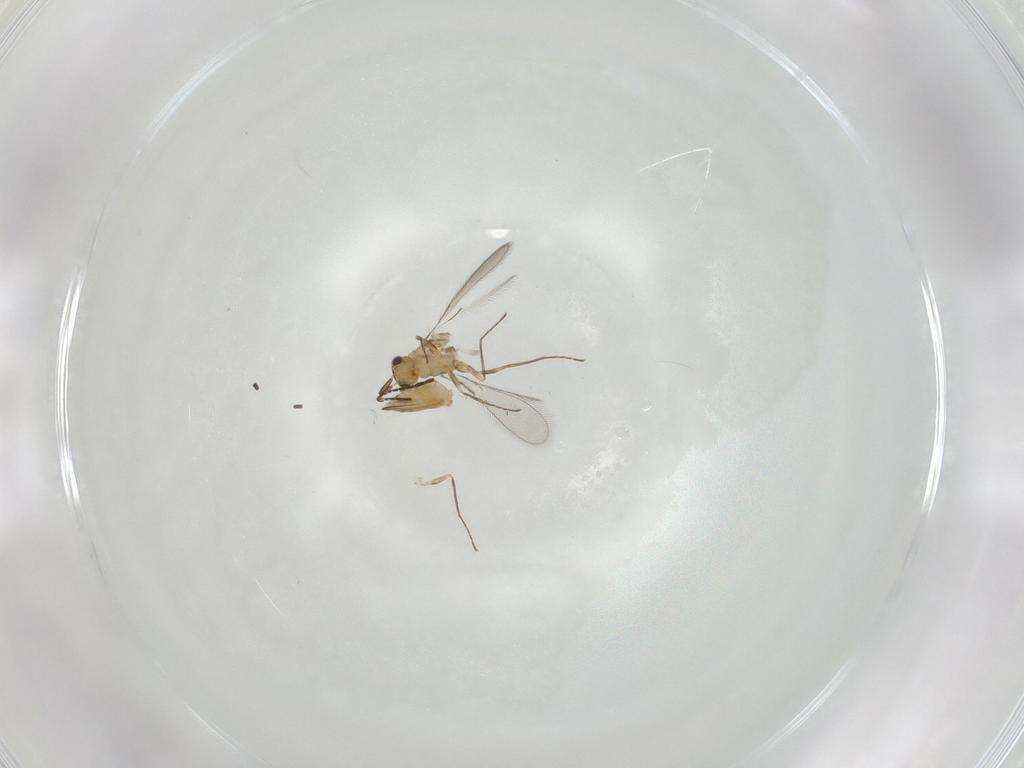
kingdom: Animalia
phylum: Arthropoda
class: Insecta
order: Hymenoptera
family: Mymaridae
